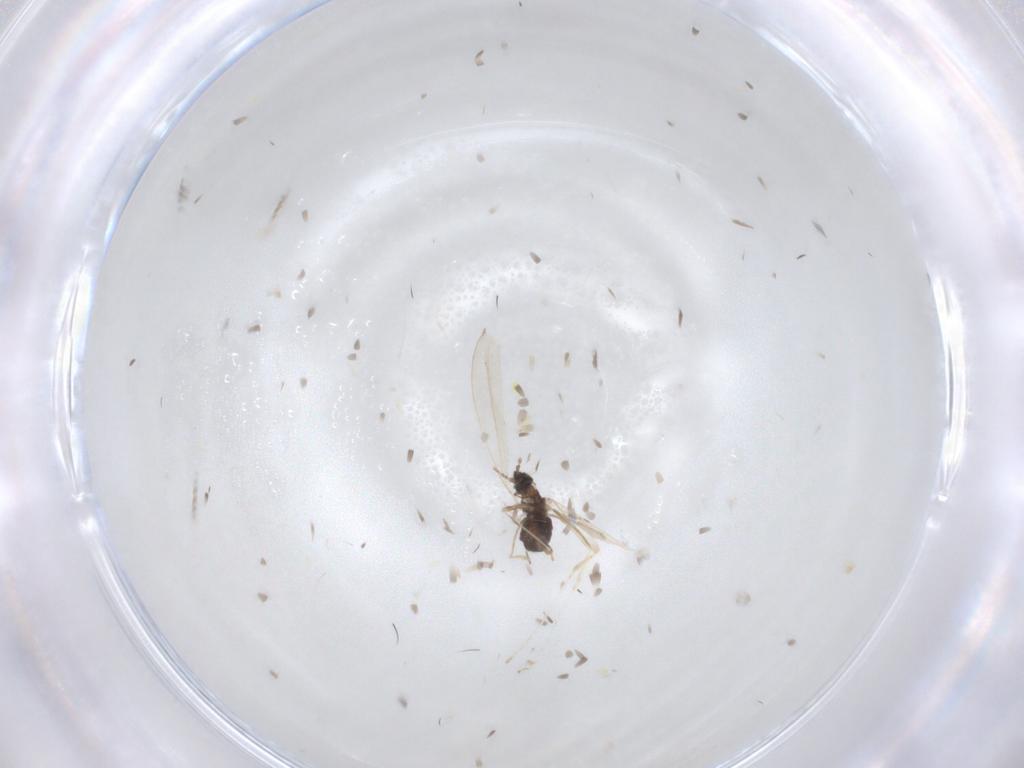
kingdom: Animalia
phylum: Arthropoda
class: Insecta
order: Diptera
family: Cecidomyiidae
